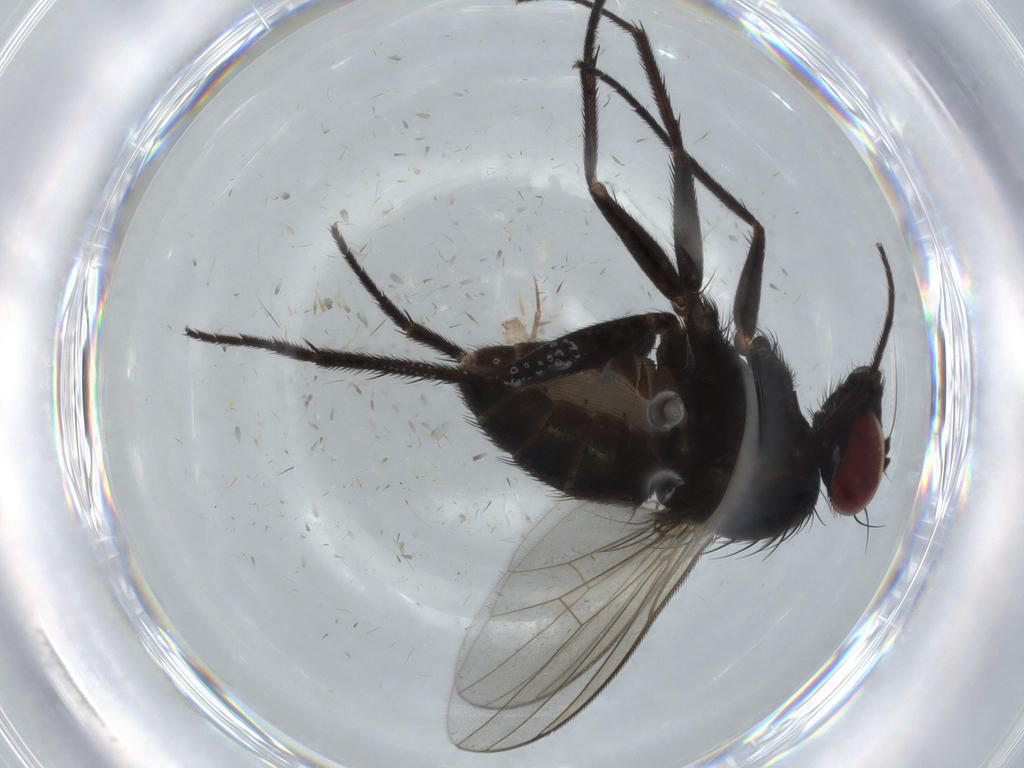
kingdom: Animalia
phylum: Arthropoda
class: Insecta
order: Diptera
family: Dolichopodidae
